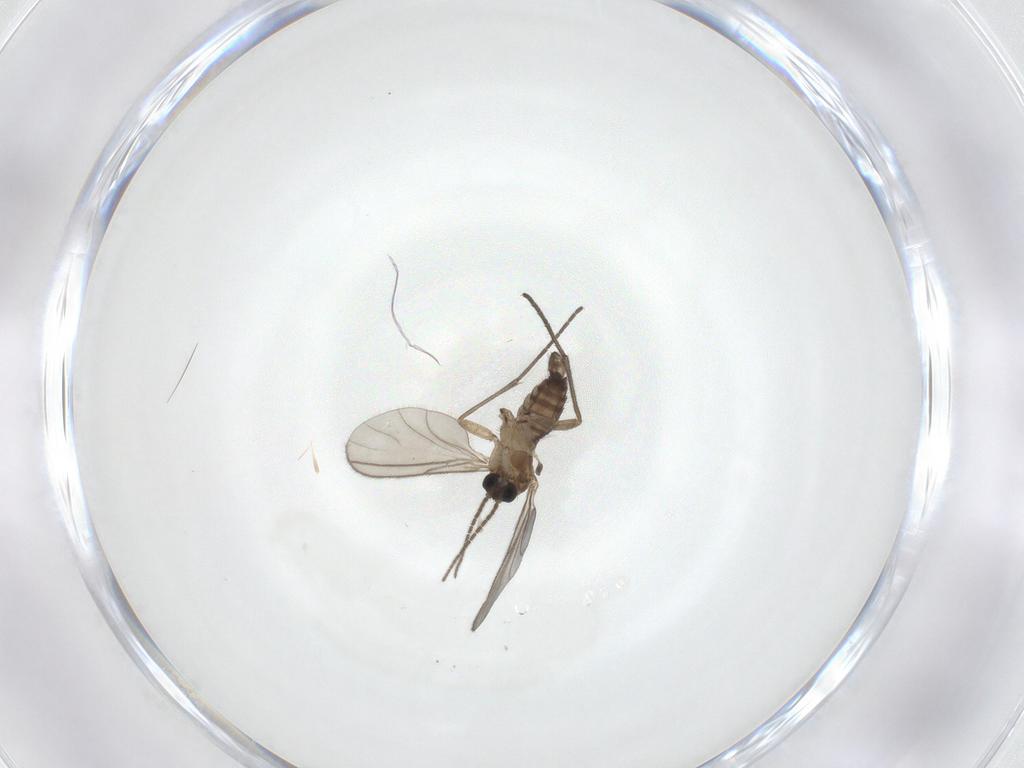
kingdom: Animalia
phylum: Arthropoda
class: Insecta
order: Diptera
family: Sciaridae
